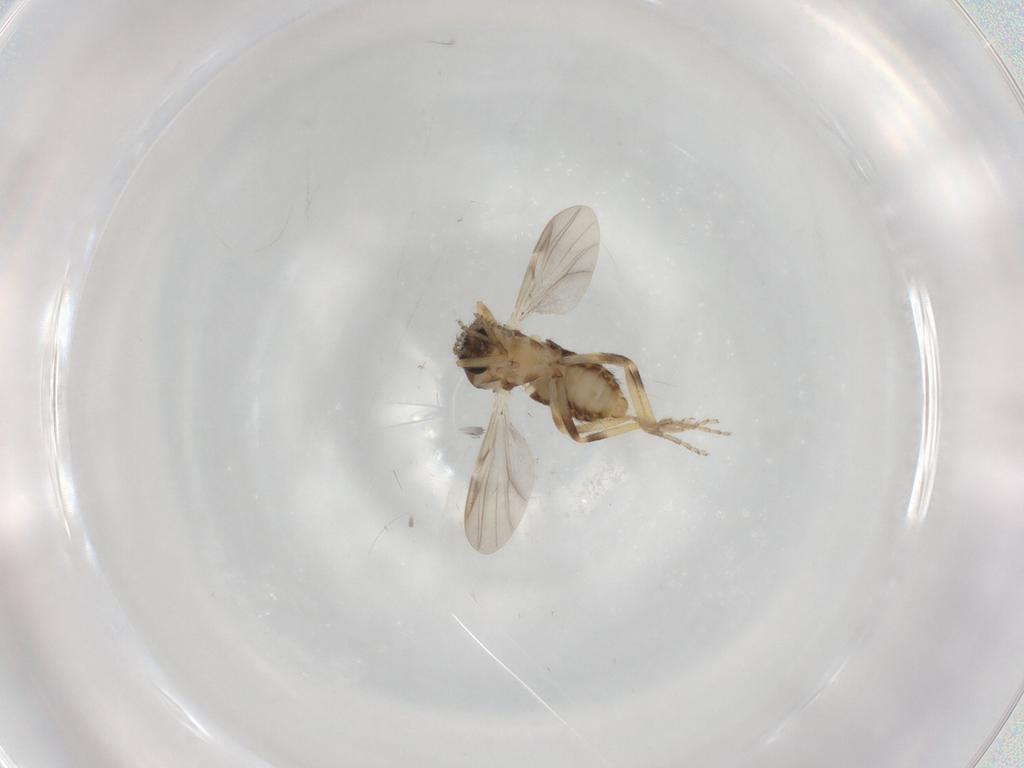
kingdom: Animalia
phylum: Arthropoda
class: Insecta
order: Diptera
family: Ceratopogonidae
